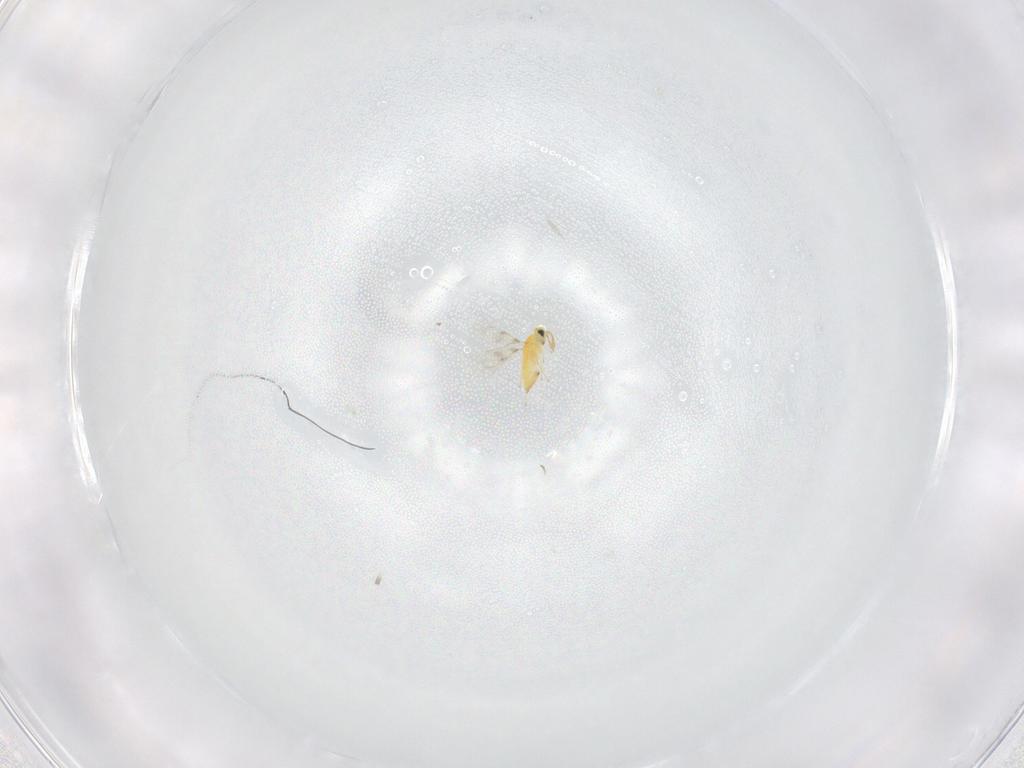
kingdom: Animalia
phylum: Arthropoda
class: Insecta
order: Hymenoptera
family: Trichogrammatidae
